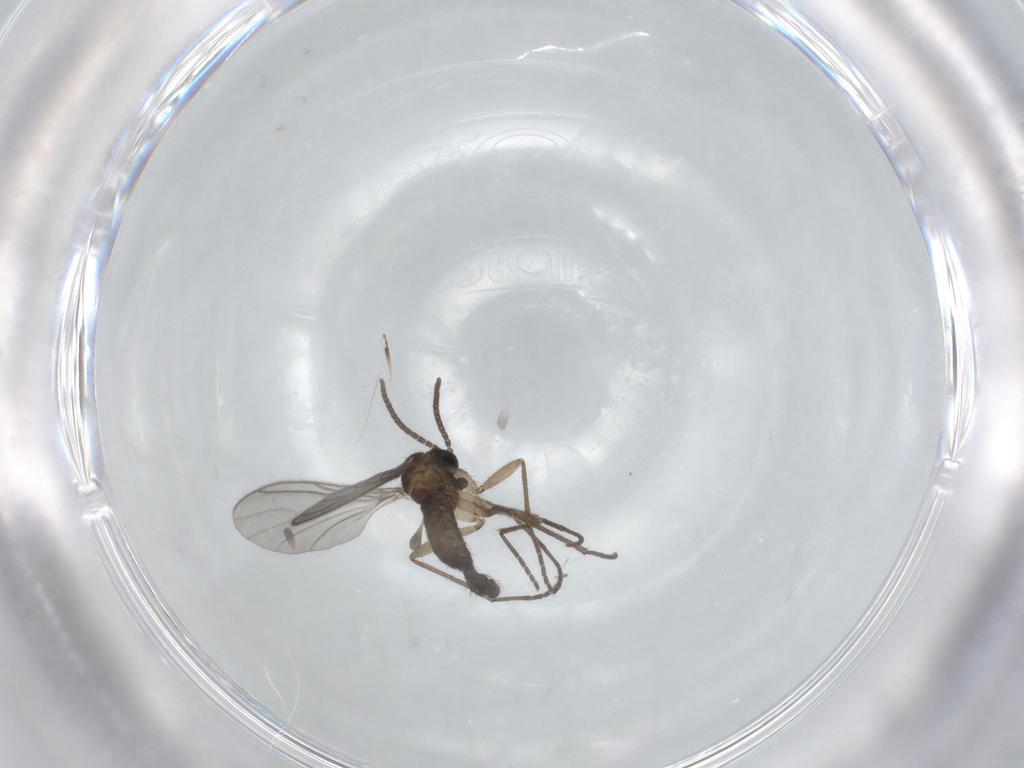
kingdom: Animalia
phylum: Arthropoda
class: Insecta
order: Diptera
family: Sciaridae
